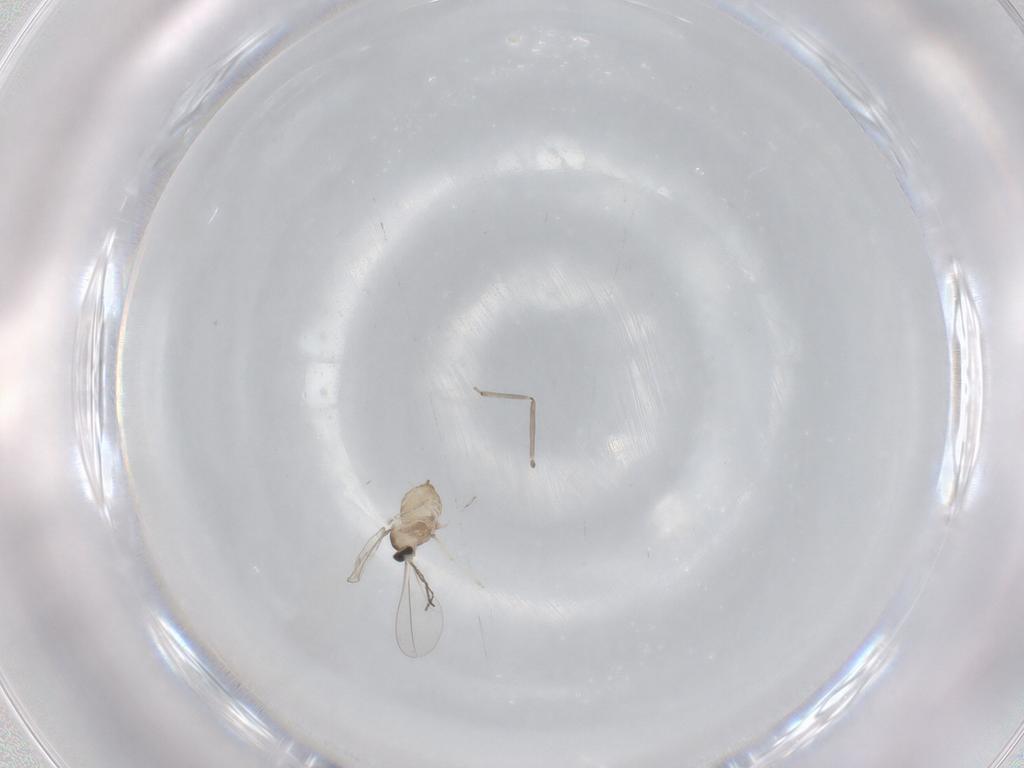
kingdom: Animalia
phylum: Arthropoda
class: Insecta
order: Diptera
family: Cecidomyiidae
